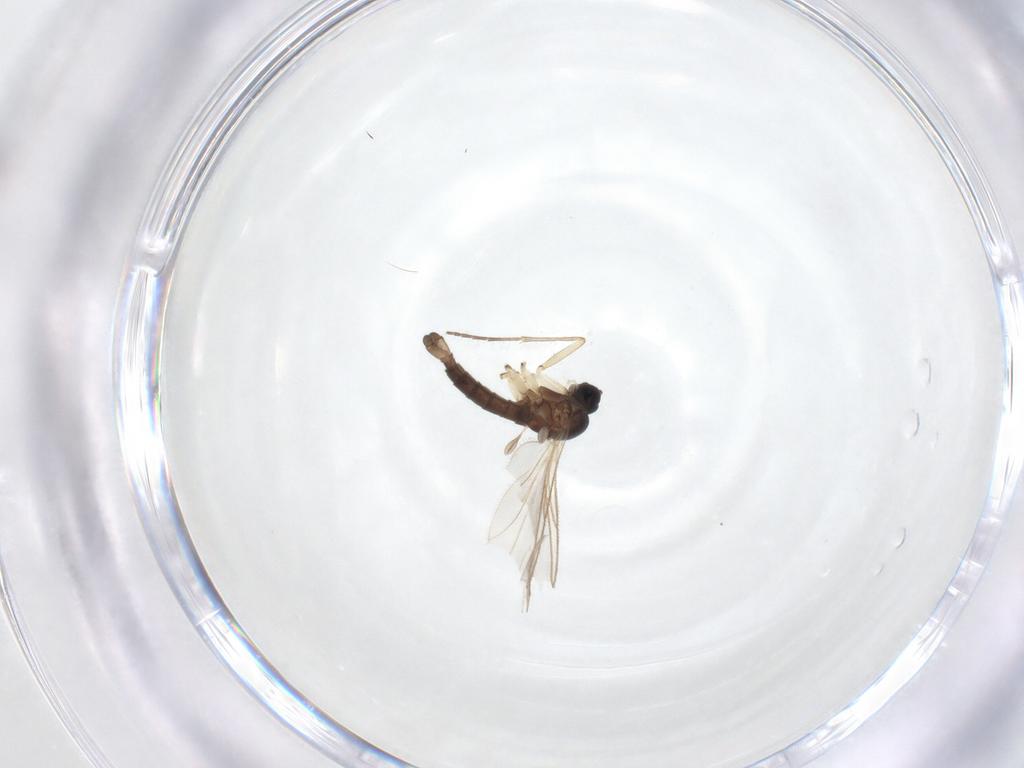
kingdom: Animalia
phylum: Arthropoda
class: Insecta
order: Diptera
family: Sciaridae
